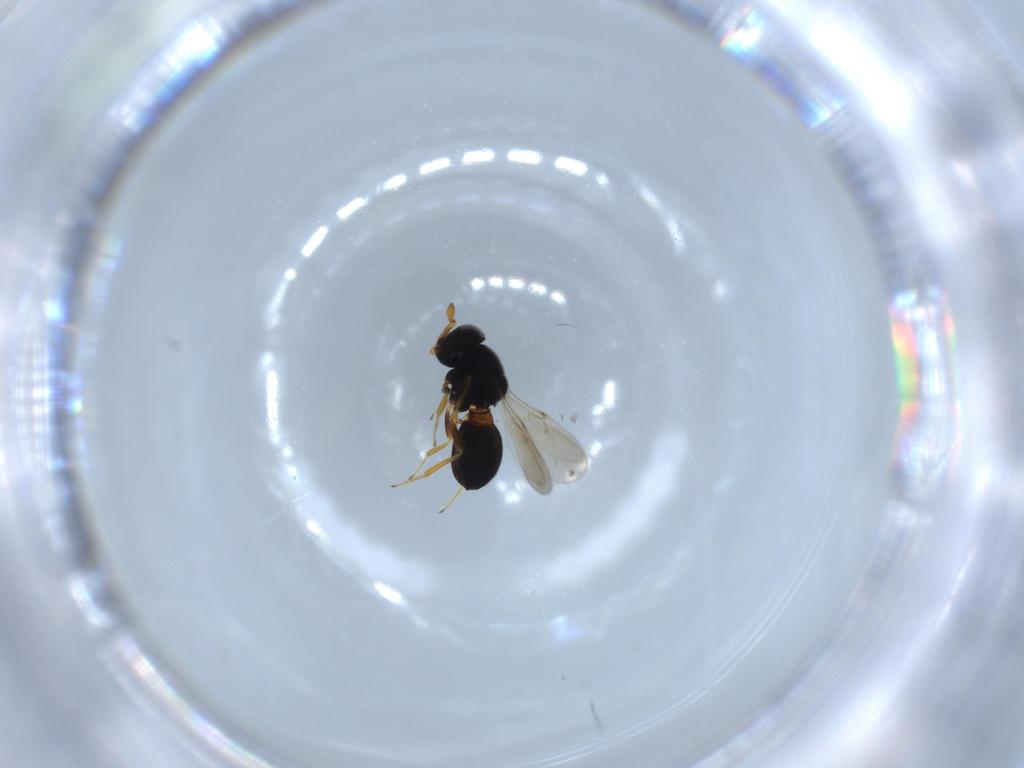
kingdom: Animalia
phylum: Arthropoda
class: Insecta
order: Hymenoptera
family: Scelionidae
